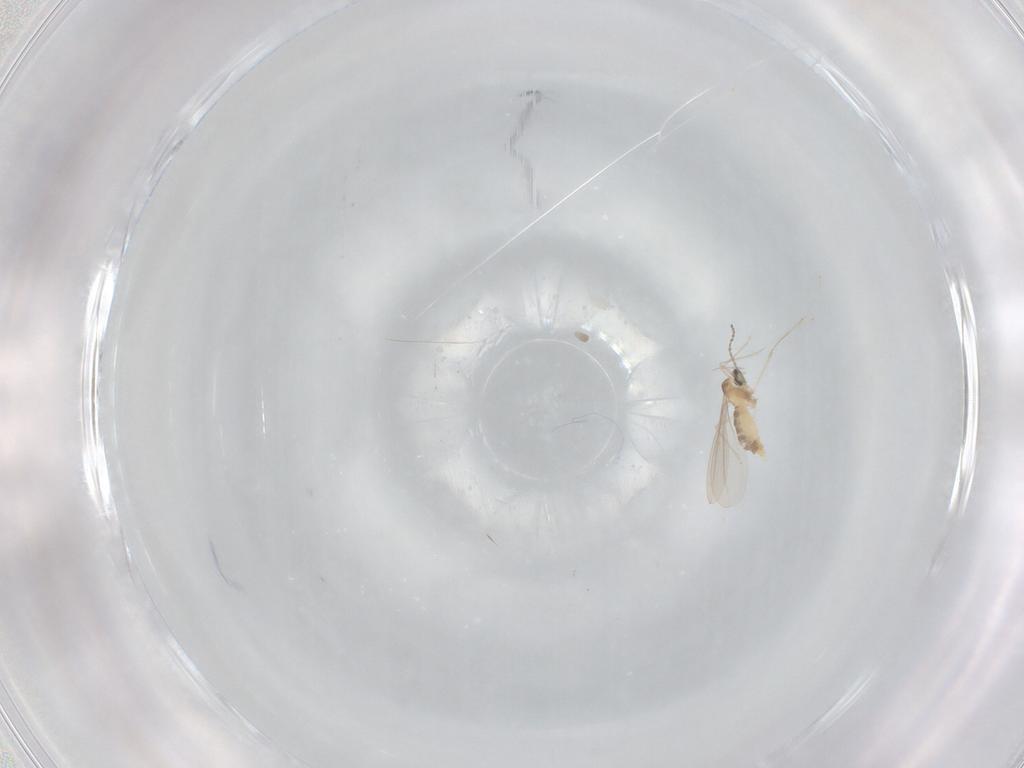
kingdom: Animalia
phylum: Arthropoda
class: Insecta
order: Diptera
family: Cecidomyiidae
